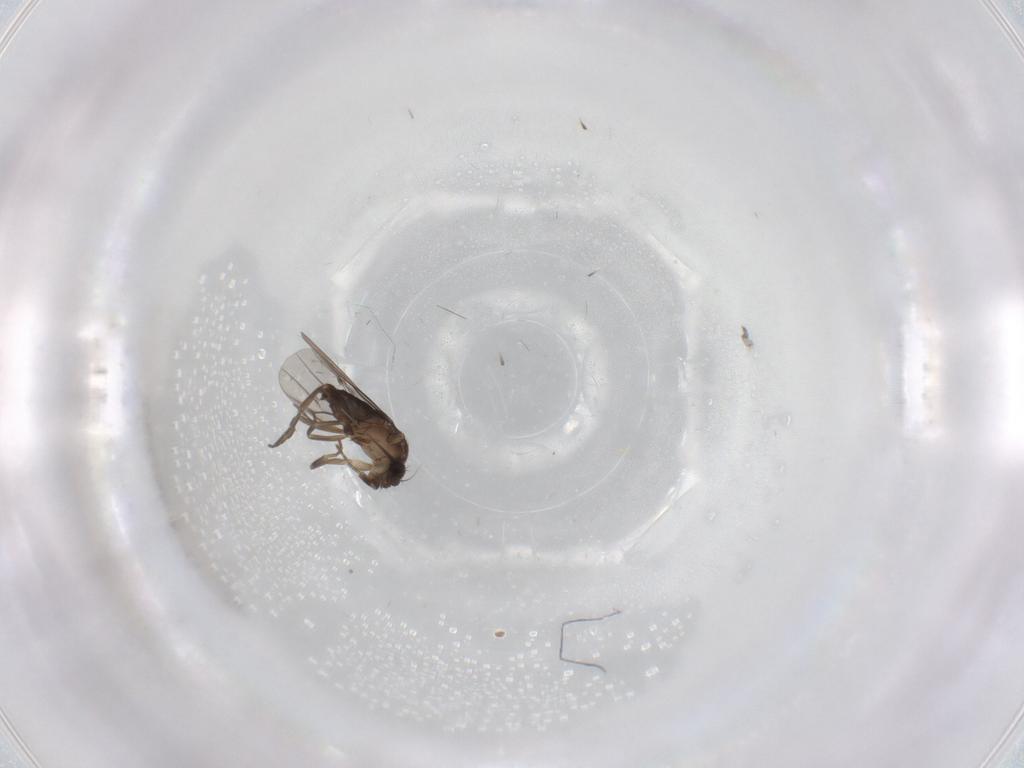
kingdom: Animalia
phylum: Arthropoda
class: Insecta
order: Diptera
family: Phoridae
